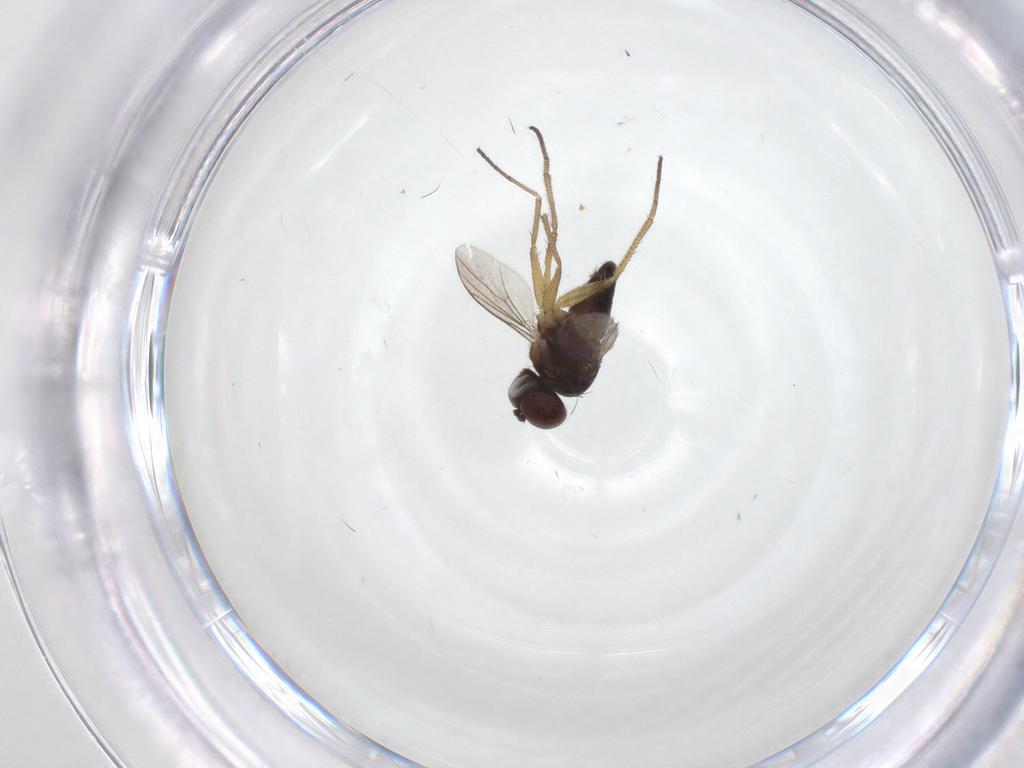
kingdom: Animalia
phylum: Arthropoda
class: Insecta
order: Diptera
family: Dolichopodidae
